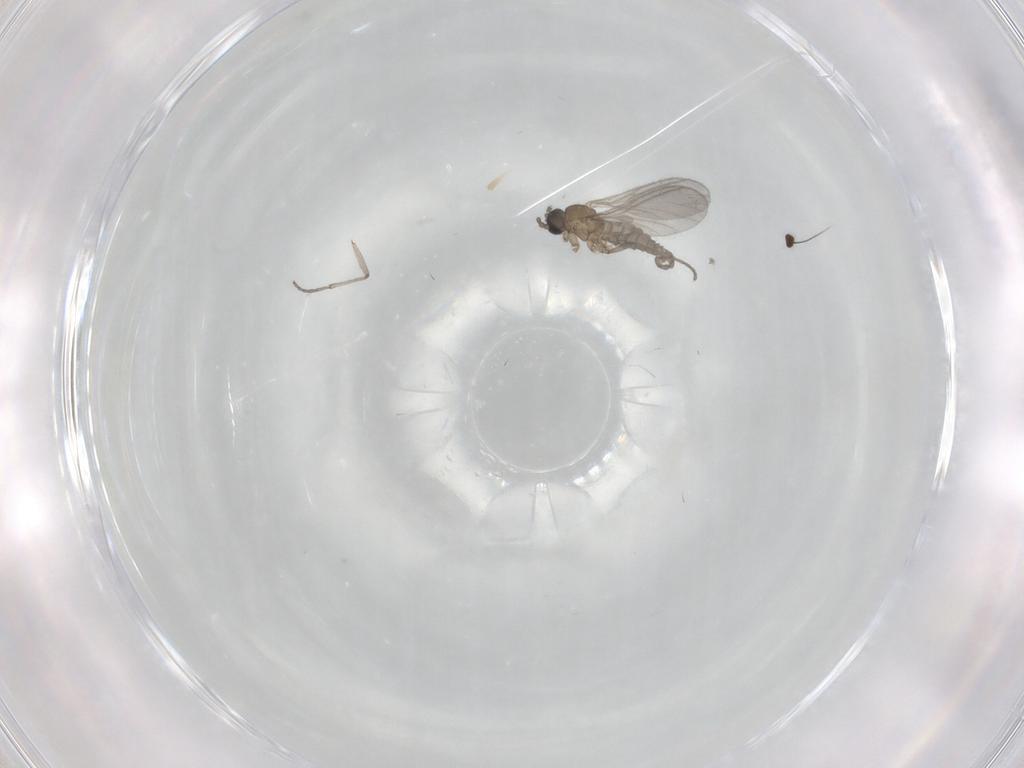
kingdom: Animalia
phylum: Arthropoda
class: Insecta
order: Diptera
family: Sciaridae
